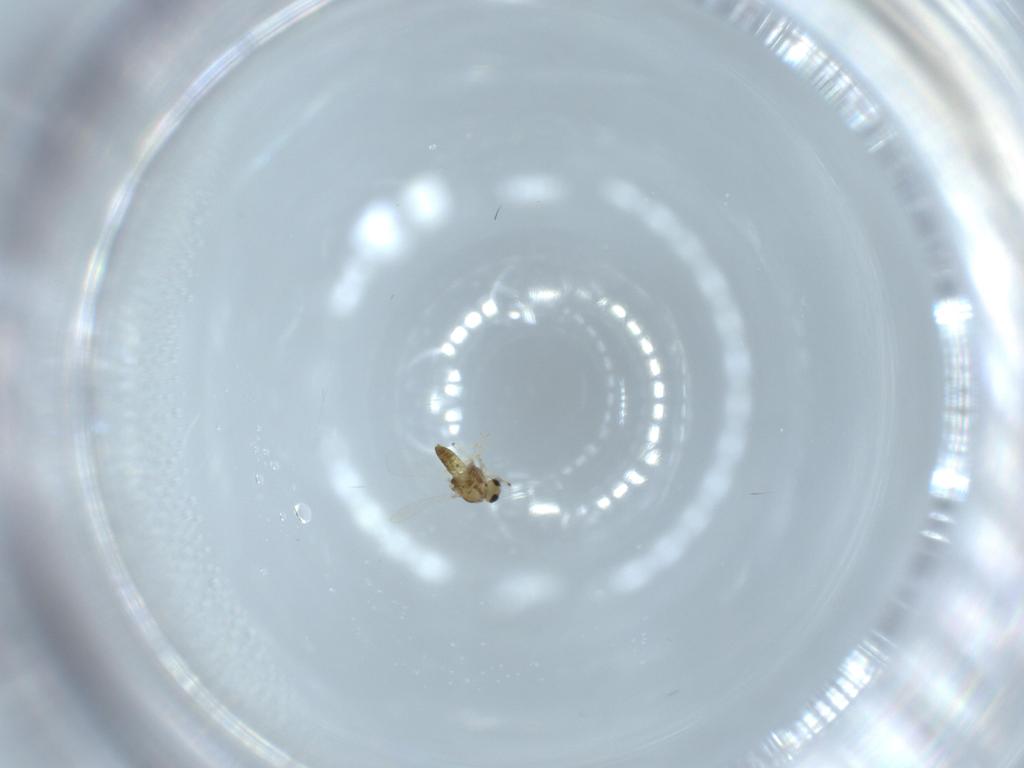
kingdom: Animalia
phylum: Arthropoda
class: Insecta
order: Diptera
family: Chironomidae
